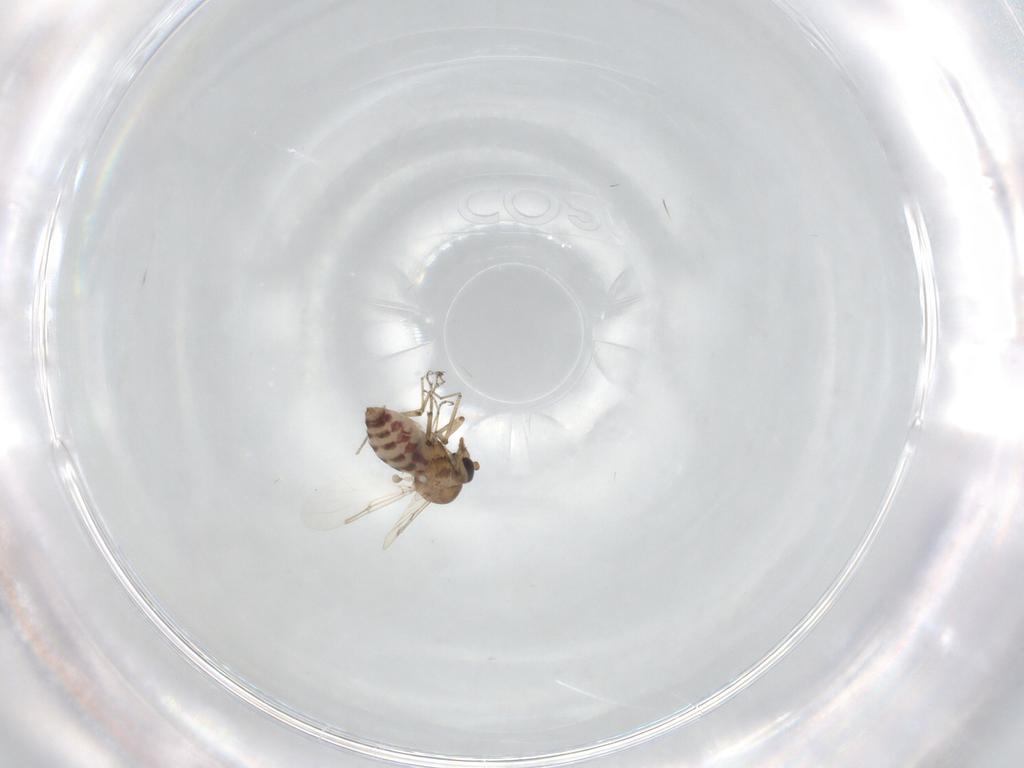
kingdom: Animalia
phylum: Arthropoda
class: Insecta
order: Diptera
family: Ceratopogonidae
